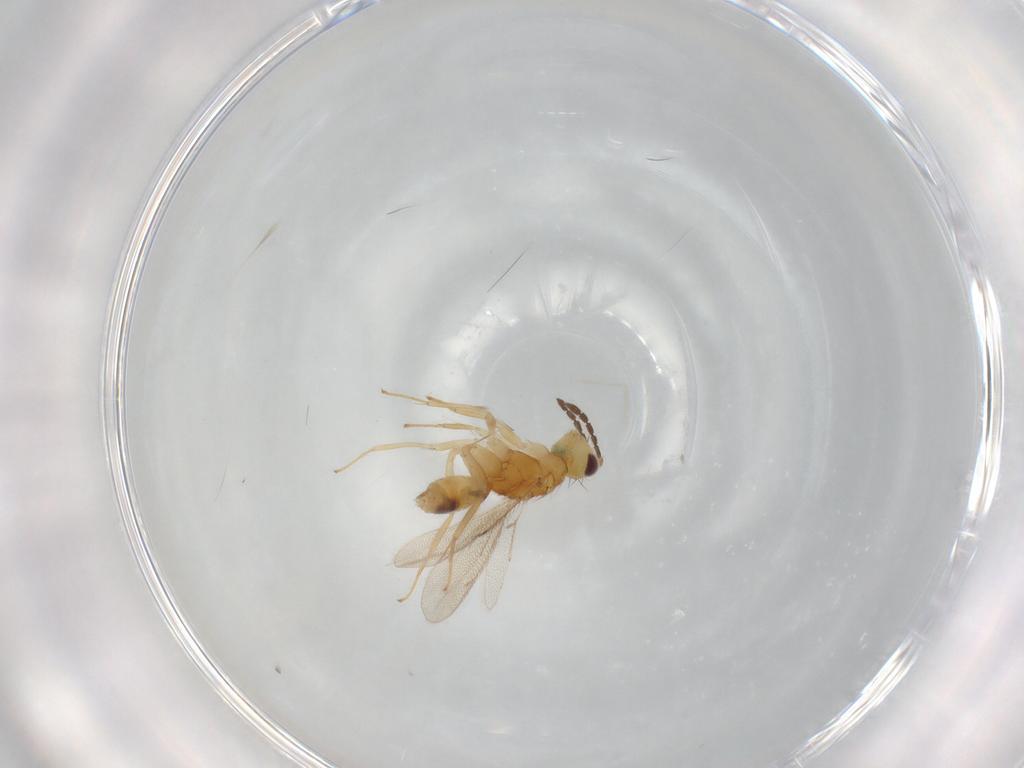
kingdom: Animalia
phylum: Arthropoda
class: Insecta
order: Hymenoptera
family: Eulophidae
